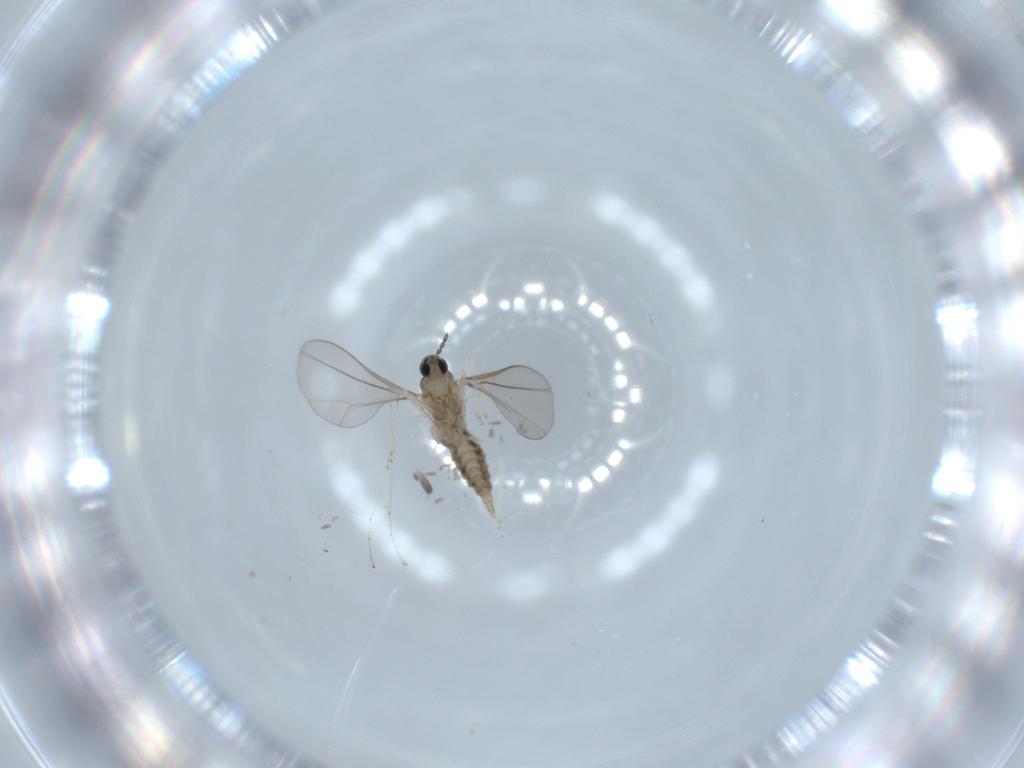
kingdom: Animalia
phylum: Arthropoda
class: Insecta
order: Diptera
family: Cecidomyiidae
